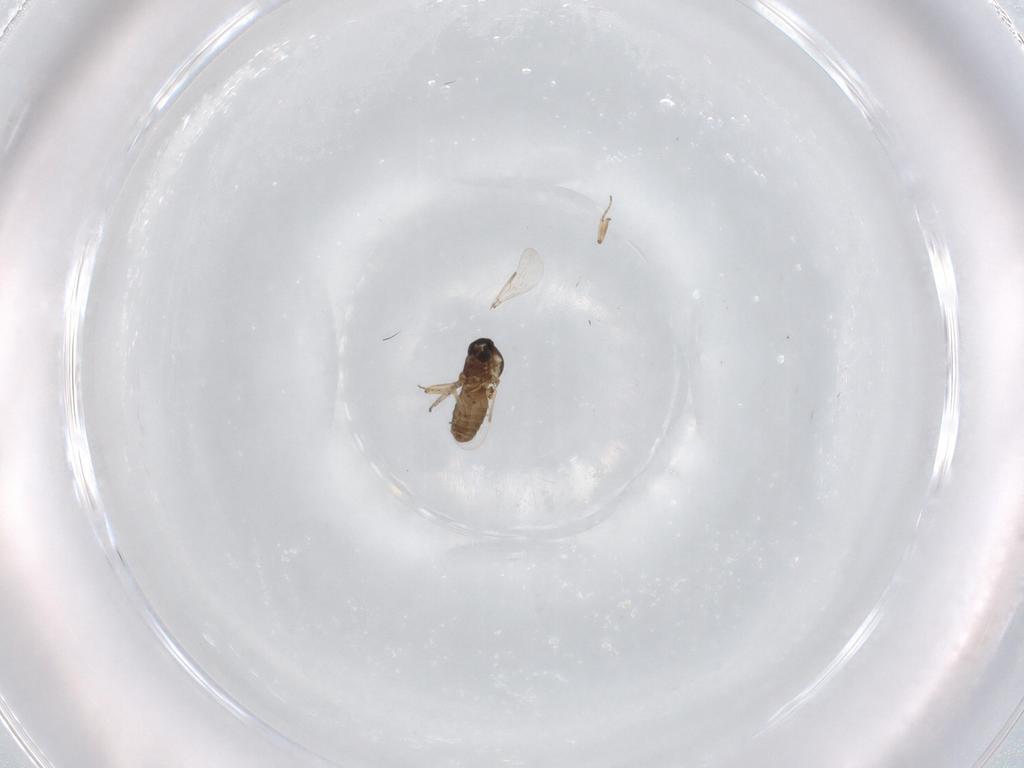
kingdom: Animalia
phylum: Arthropoda
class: Insecta
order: Diptera
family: Ceratopogonidae
